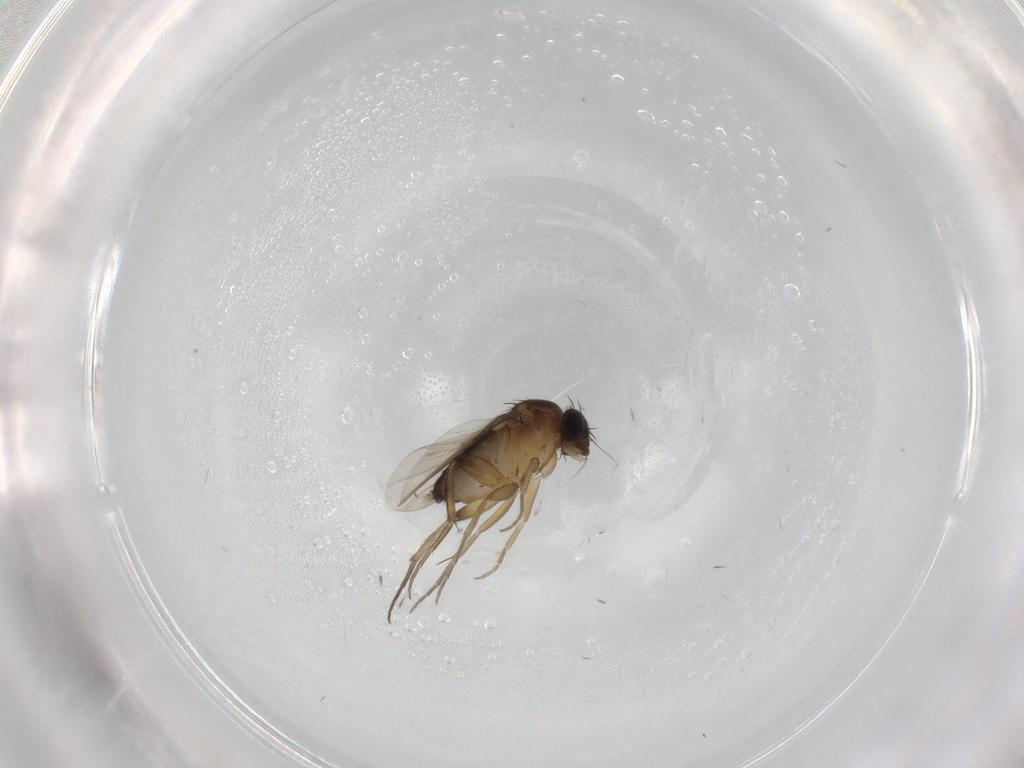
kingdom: Animalia
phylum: Arthropoda
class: Insecta
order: Diptera
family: Phoridae
